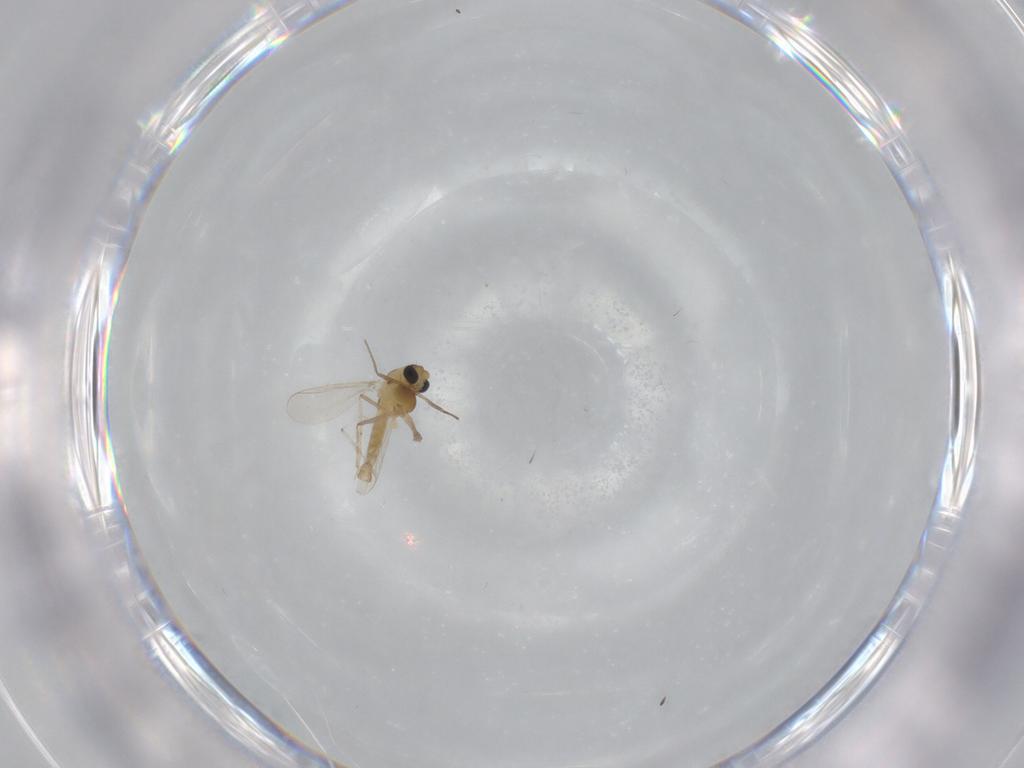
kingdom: Animalia
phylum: Arthropoda
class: Insecta
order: Diptera
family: Chironomidae
